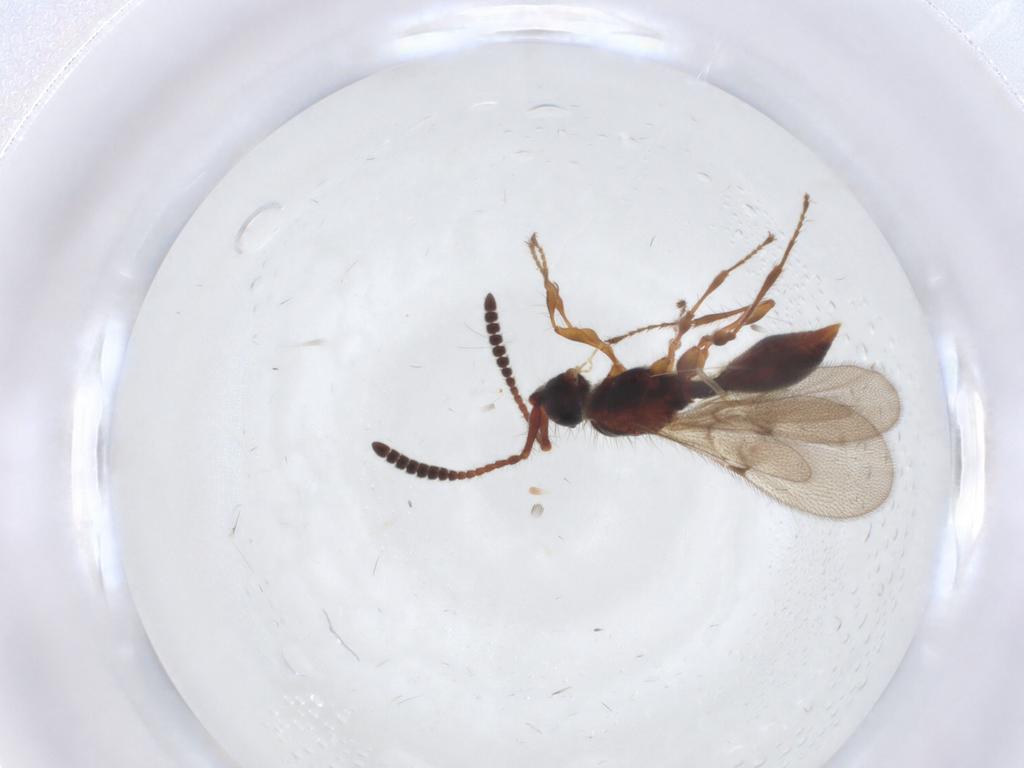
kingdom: Animalia
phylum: Arthropoda
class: Insecta
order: Hymenoptera
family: Diapriidae
